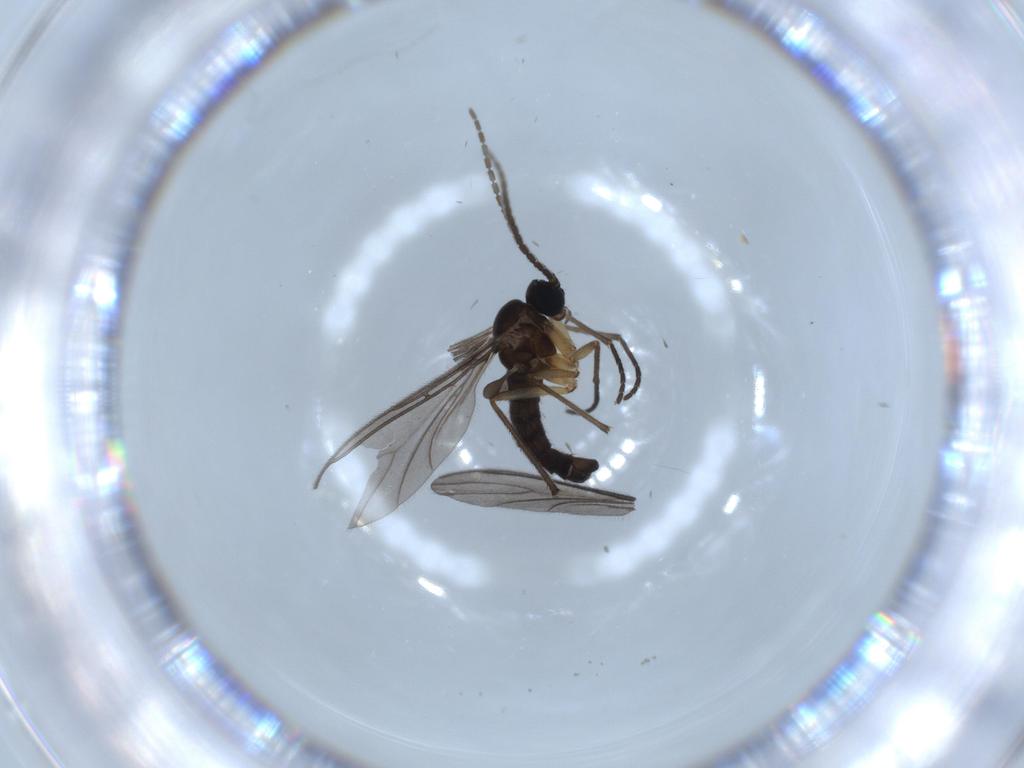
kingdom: Animalia
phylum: Arthropoda
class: Insecta
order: Diptera
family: Sciaridae
